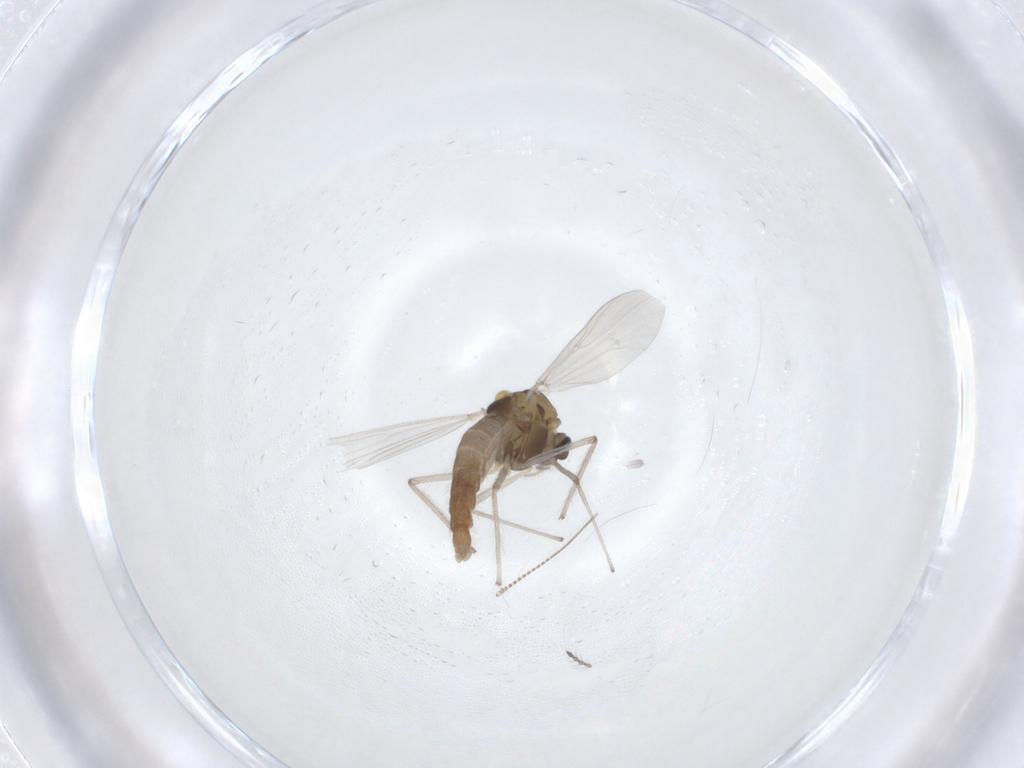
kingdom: Animalia
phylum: Arthropoda
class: Insecta
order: Diptera
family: Chironomidae
